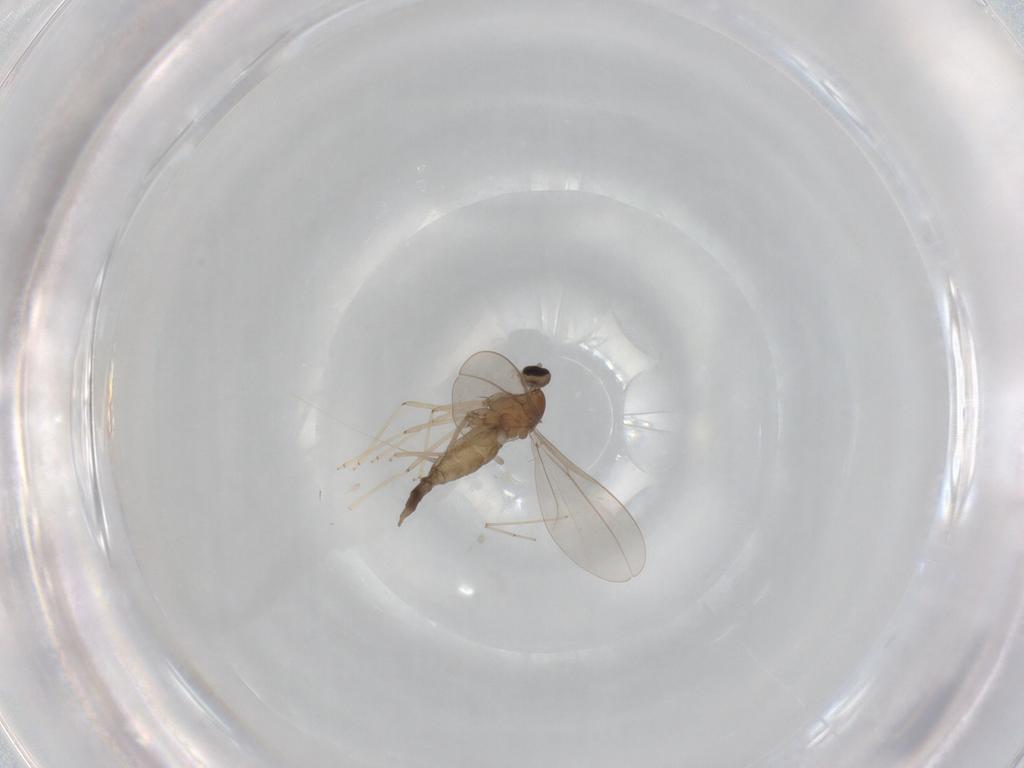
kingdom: Animalia
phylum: Arthropoda
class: Insecta
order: Diptera
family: Cecidomyiidae
